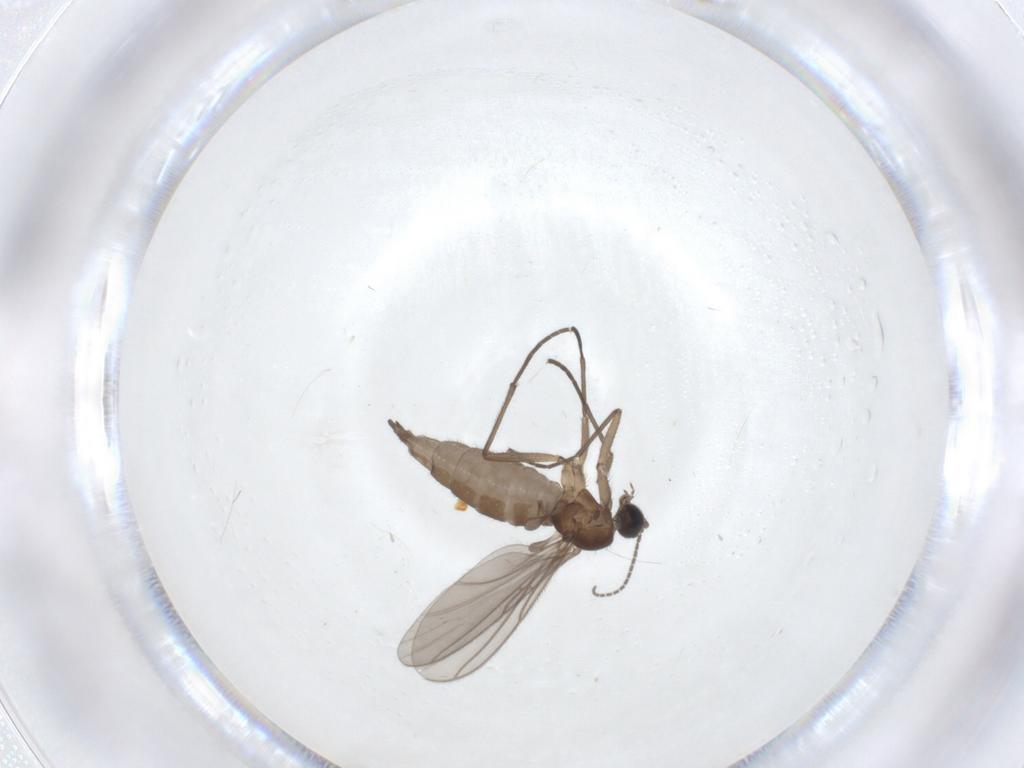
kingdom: Animalia
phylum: Arthropoda
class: Insecta
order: Diptera
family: Sciaridae
